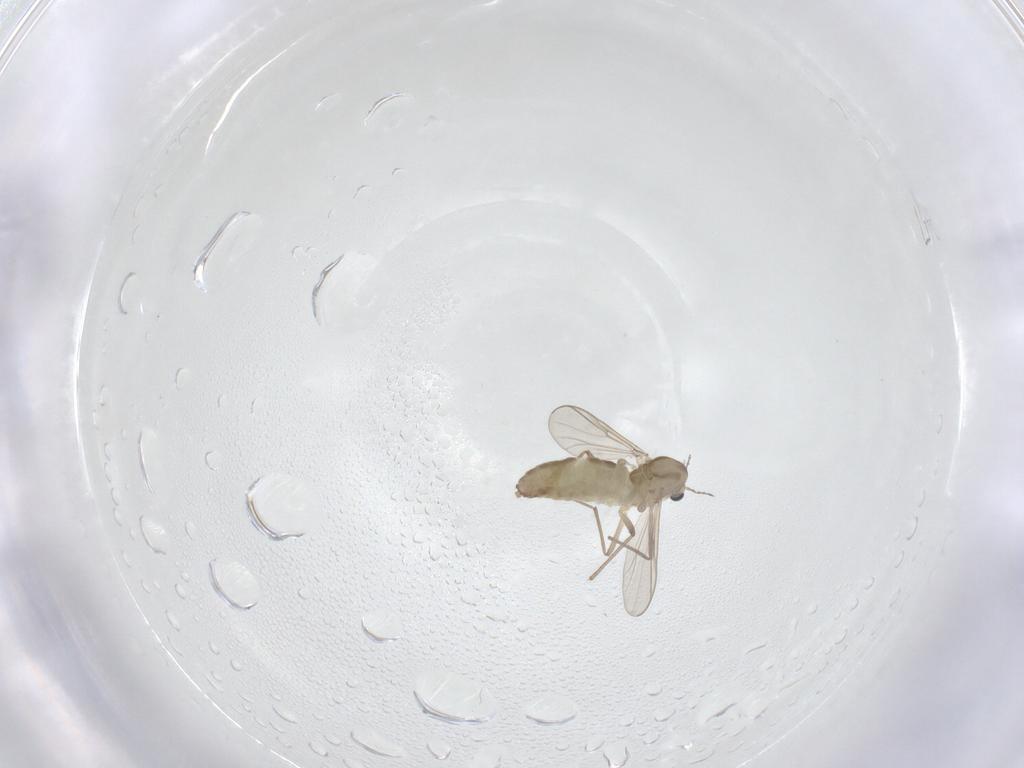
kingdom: Animalia
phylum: Arthropoda
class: Insecta
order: Diptera
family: Chironomidae
